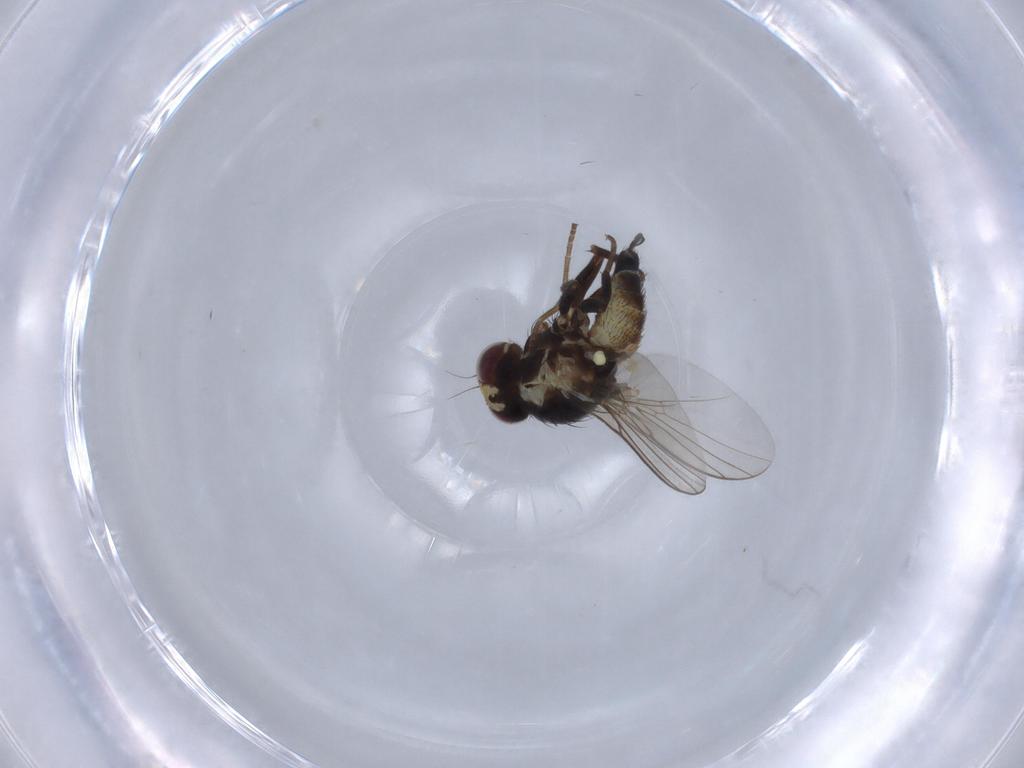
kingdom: Animalia
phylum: Arthropoda
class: Insecta
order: Diptera
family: Agromyzidae
